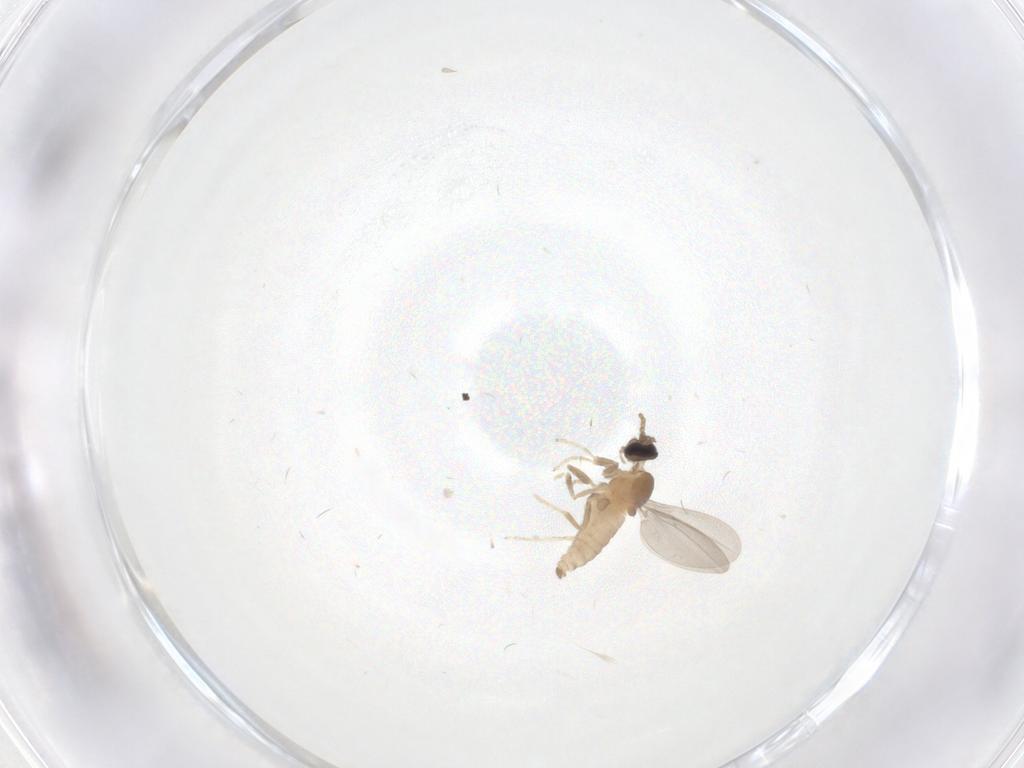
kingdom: Animalia
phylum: Arthropoda
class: Insecta
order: Diptera
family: Cecidomyiidae
